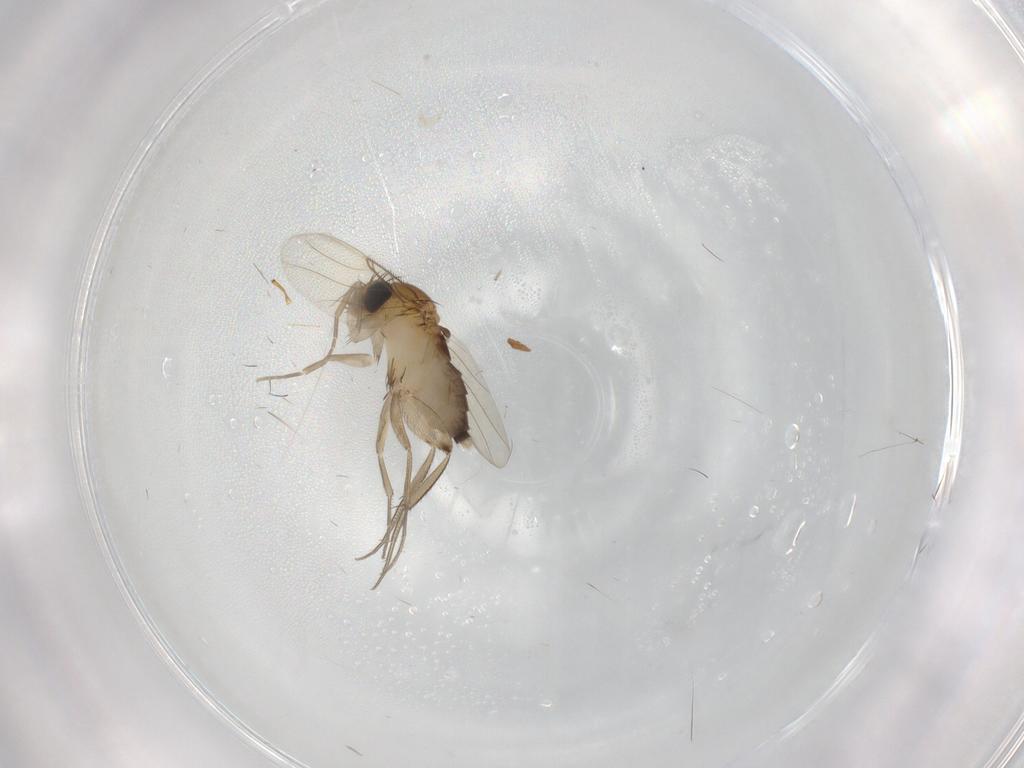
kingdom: Animalia
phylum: Arthropoda
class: Insecta
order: Diptera
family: Phoridae
